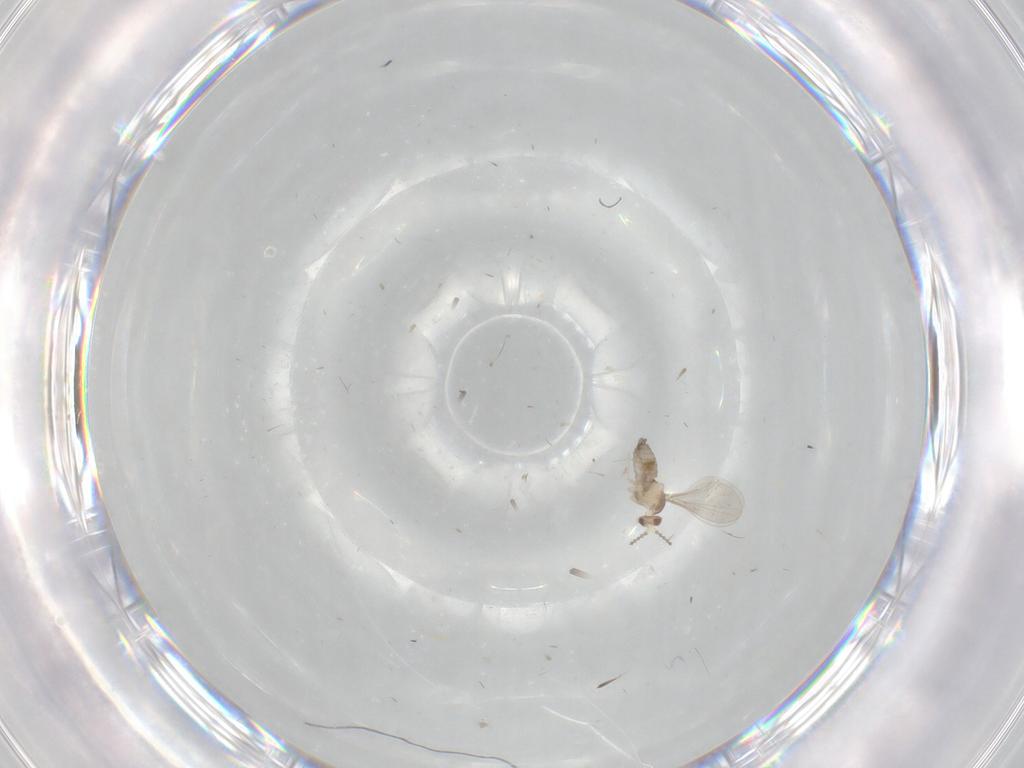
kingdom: Animalia
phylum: Arthropoda
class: Insecta
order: Diptera
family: Cecidomyiidae
